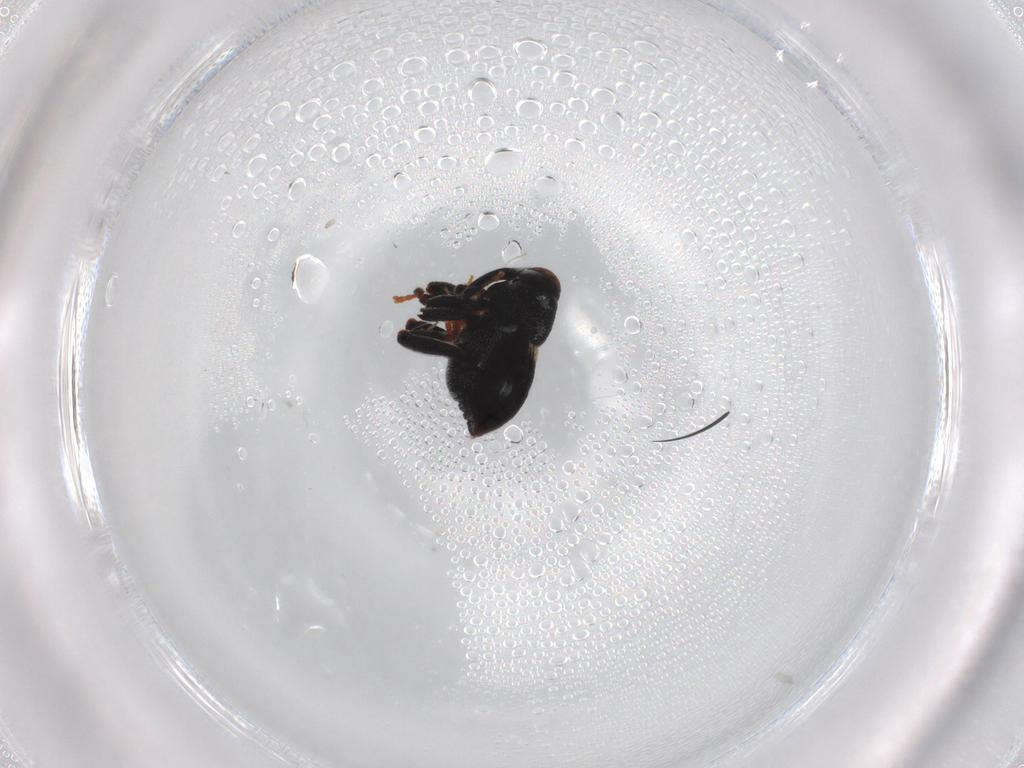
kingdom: Animalia
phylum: Arthropoda
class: Insecta
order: Coleoptera
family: Curculionidae
